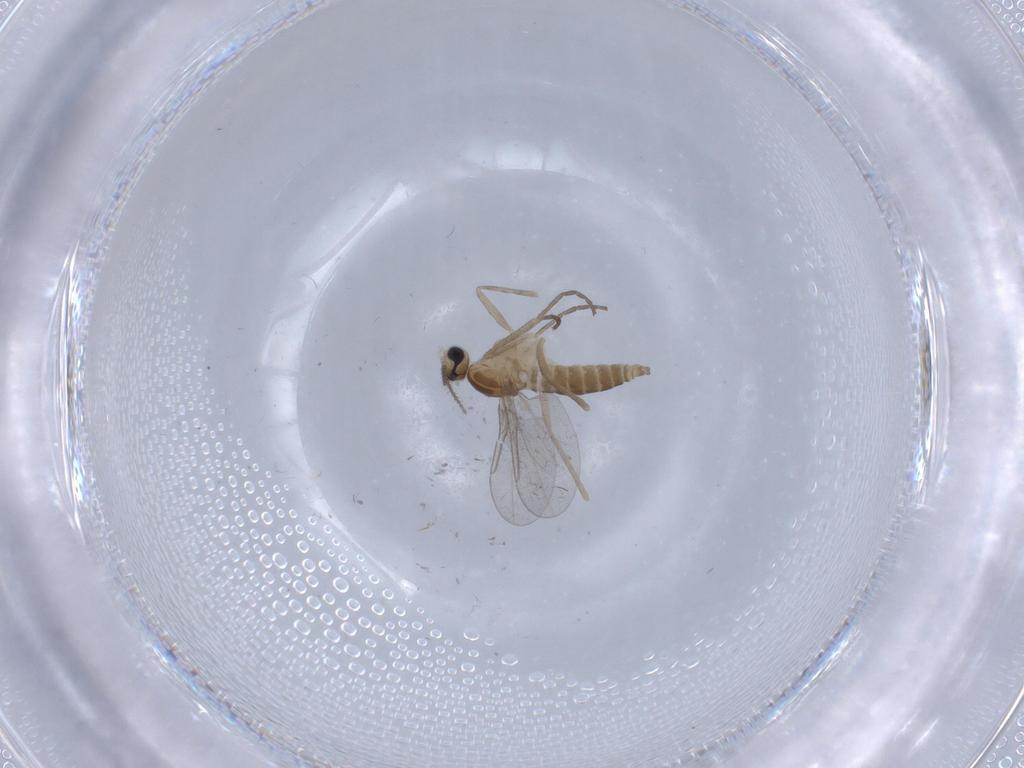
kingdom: Animalia
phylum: Arthropoda
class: Insecta
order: Diptera
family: Cecidomyiidae
